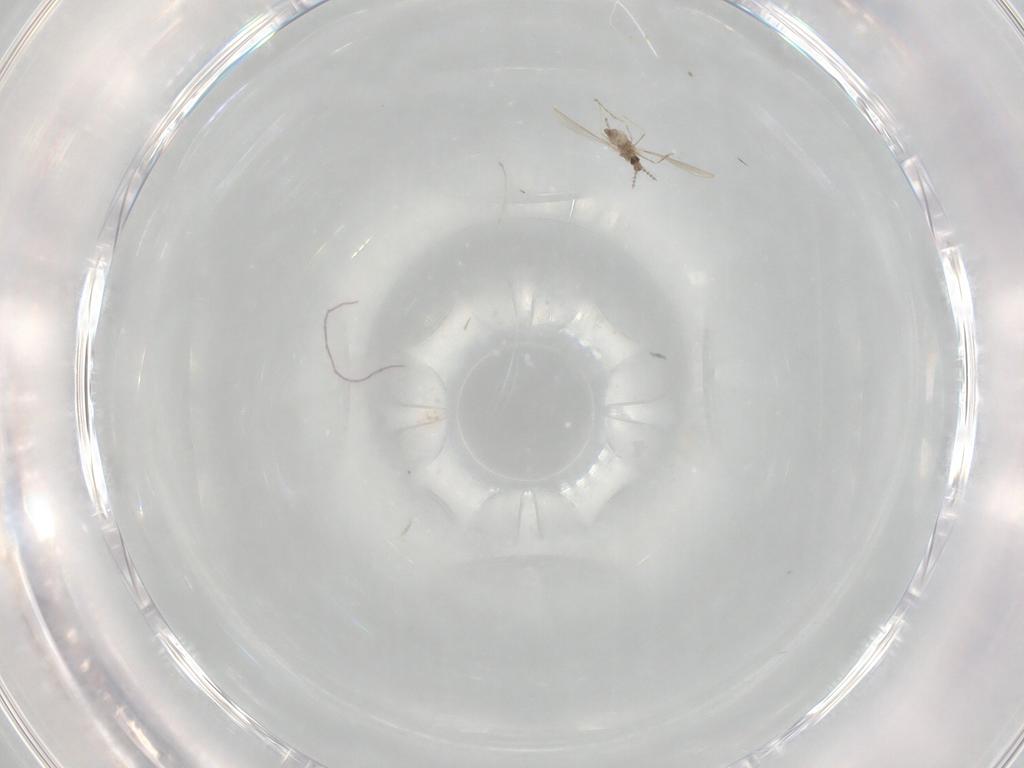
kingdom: Animalia
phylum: Arthropoda
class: Insecta
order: Diptera
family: Cecidomyiidae
